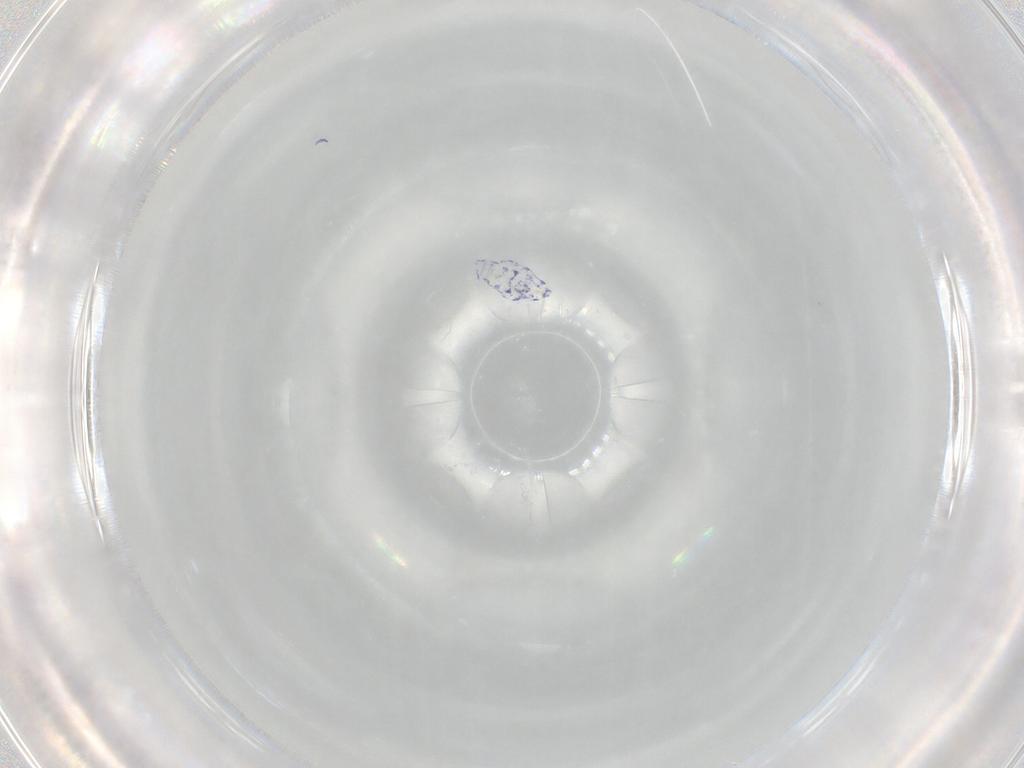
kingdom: Animalia
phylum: Arthropoda
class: Collembola
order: Entomobryomorpha
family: Entomobryidae
